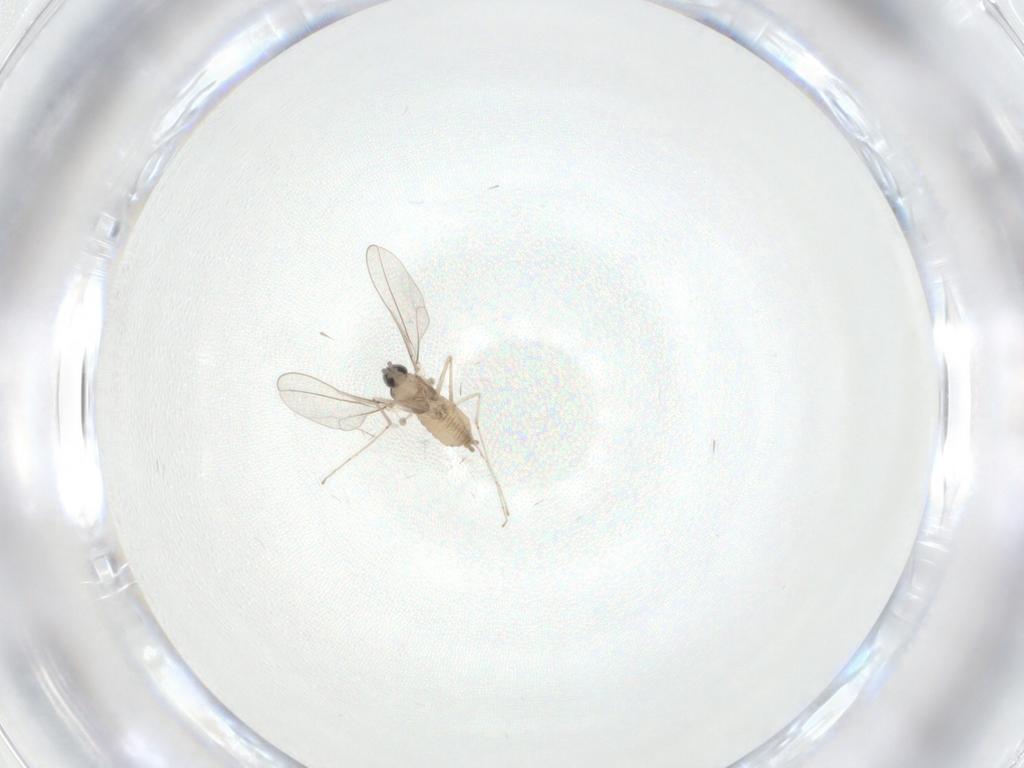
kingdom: Animalia
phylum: Arthropoda
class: Insecta
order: Diptera
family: Cecidomyiidae
